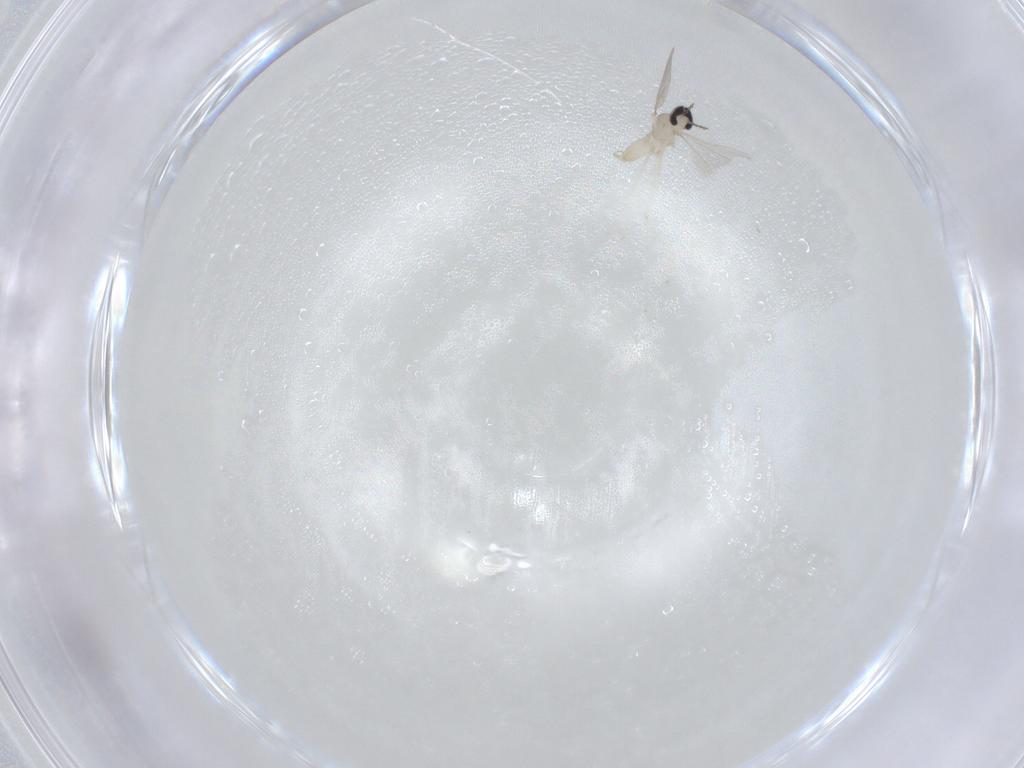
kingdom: Animalia
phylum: Arthropoda
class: Insecta
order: Diptera
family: Cecidomyiidae
